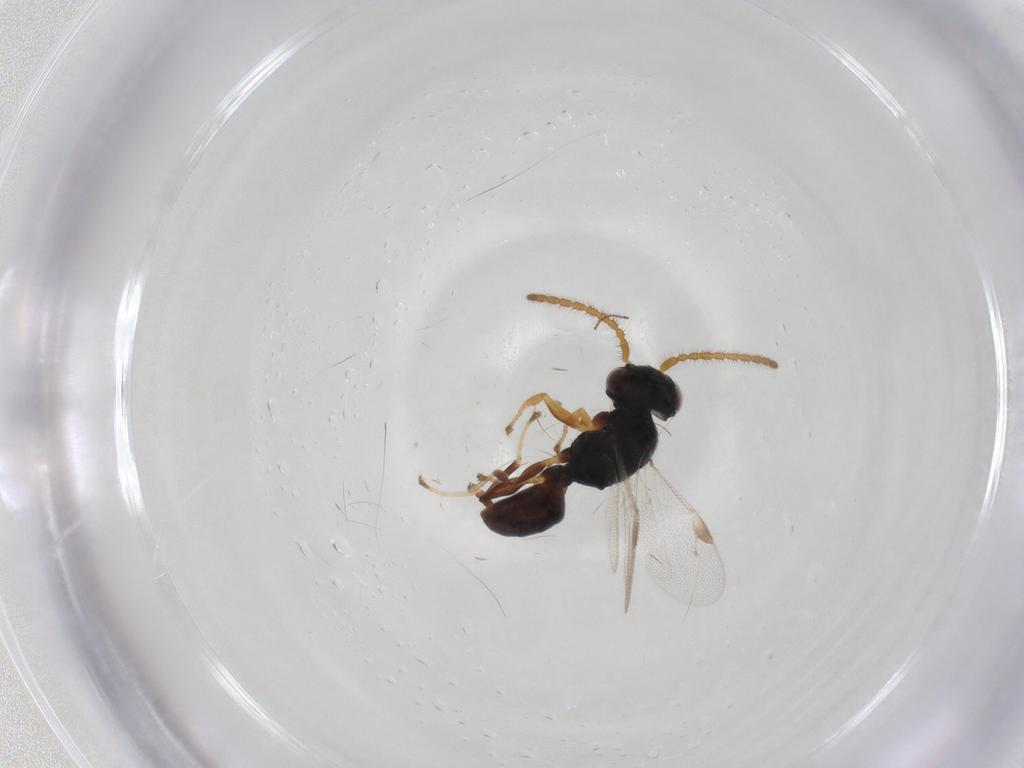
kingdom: Animalia
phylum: Arthropoda
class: Insecta
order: Hymenoptera
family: Dryinidae
